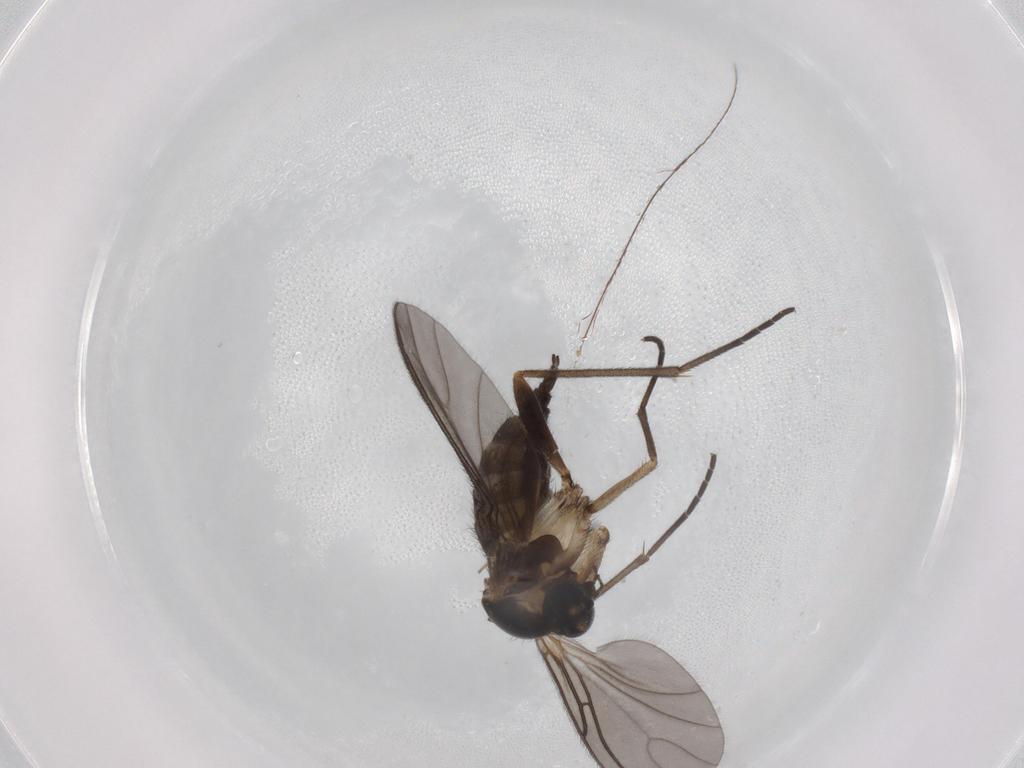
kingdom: Animalia
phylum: Arthropoda
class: Insecta
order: Diptera
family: Sciaridae
